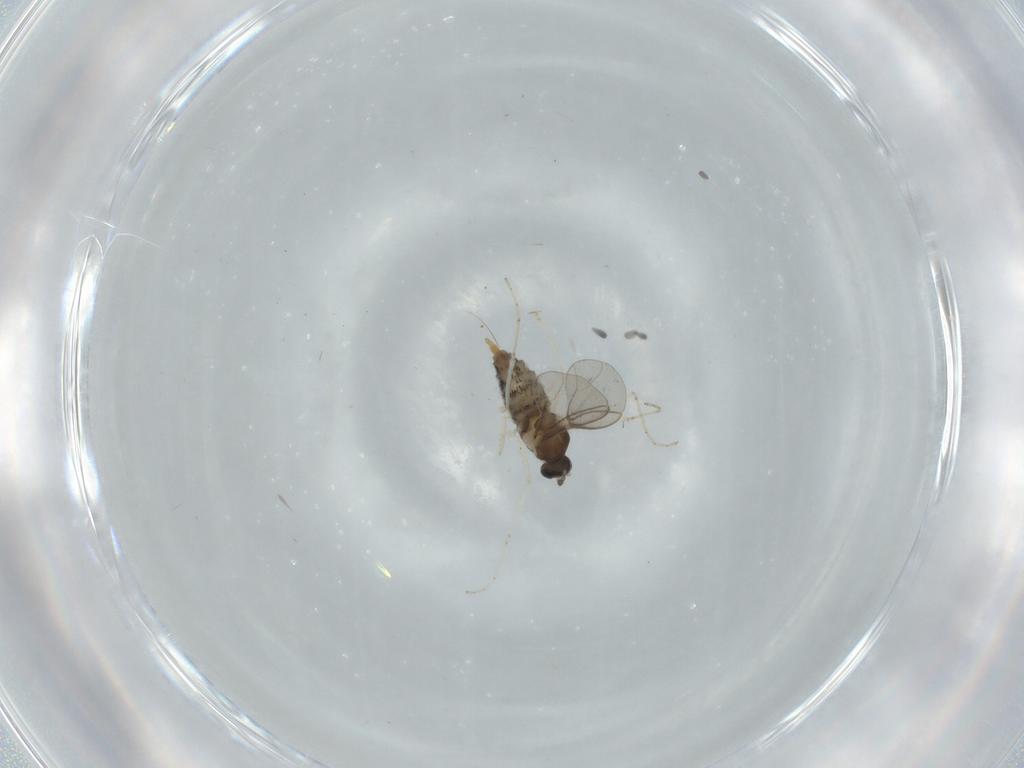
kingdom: Animalia
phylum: Arthropoda
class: Insecta
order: Diptera
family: Cecidomyiidae
